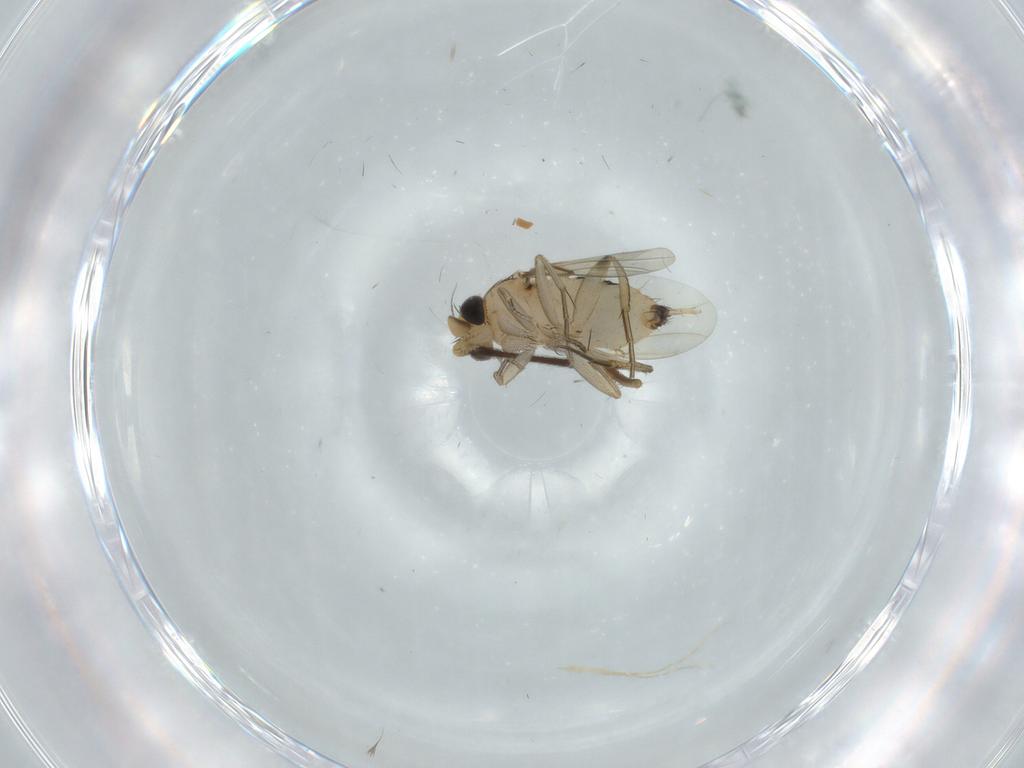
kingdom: Animalia
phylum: Arthropoda
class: Insecta
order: Diptera
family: Phoridae
